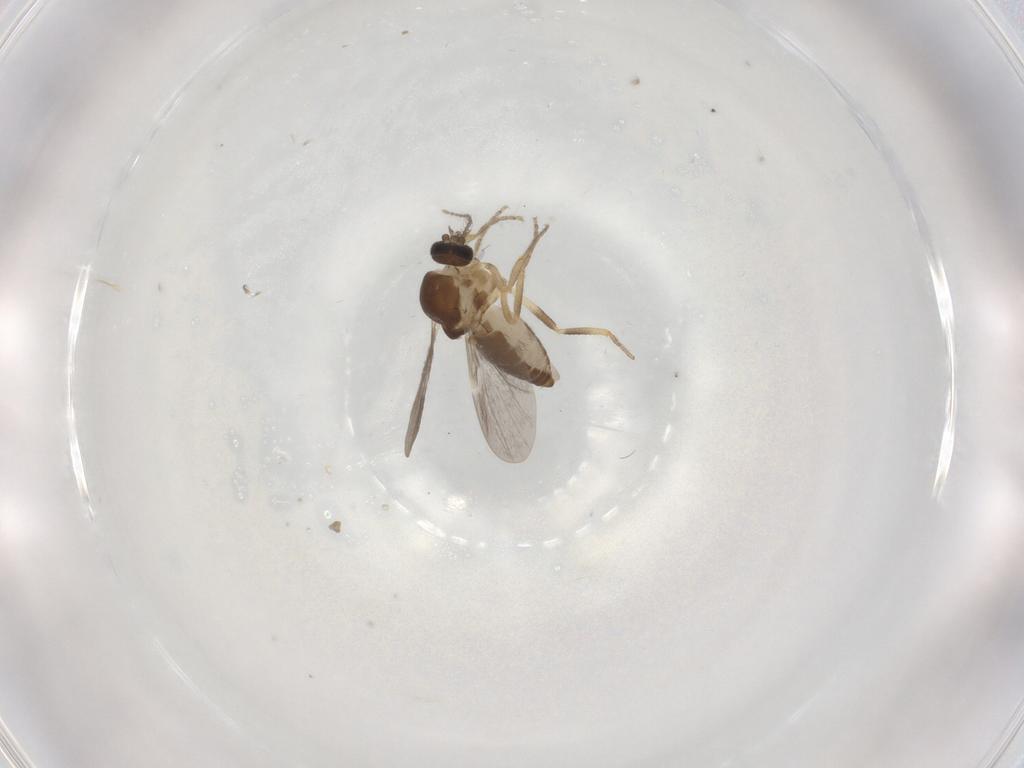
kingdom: Animalia
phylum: Arthropoda
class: Insecta
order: Diptera
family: Ceratopogonidae
